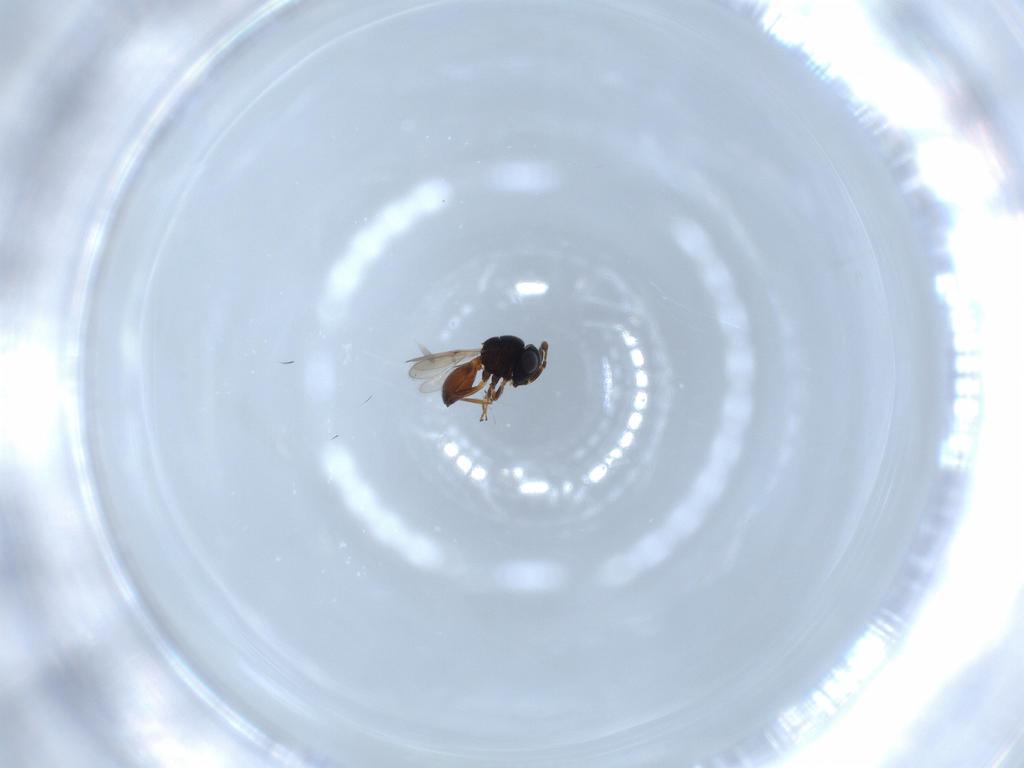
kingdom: Animalia
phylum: Arthropoda
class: Insecta
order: Hymenoptera
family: Scelionidae
